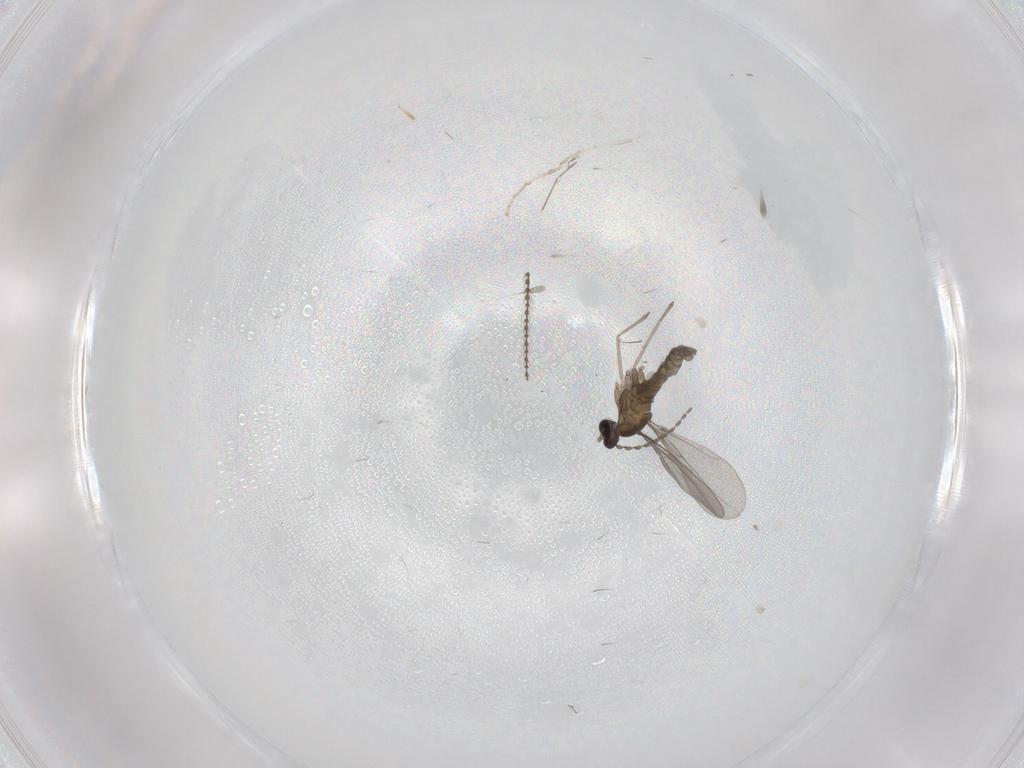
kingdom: Animalia
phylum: Arthropoda
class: Insecta
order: Diptera
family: Cecidomyiidae
